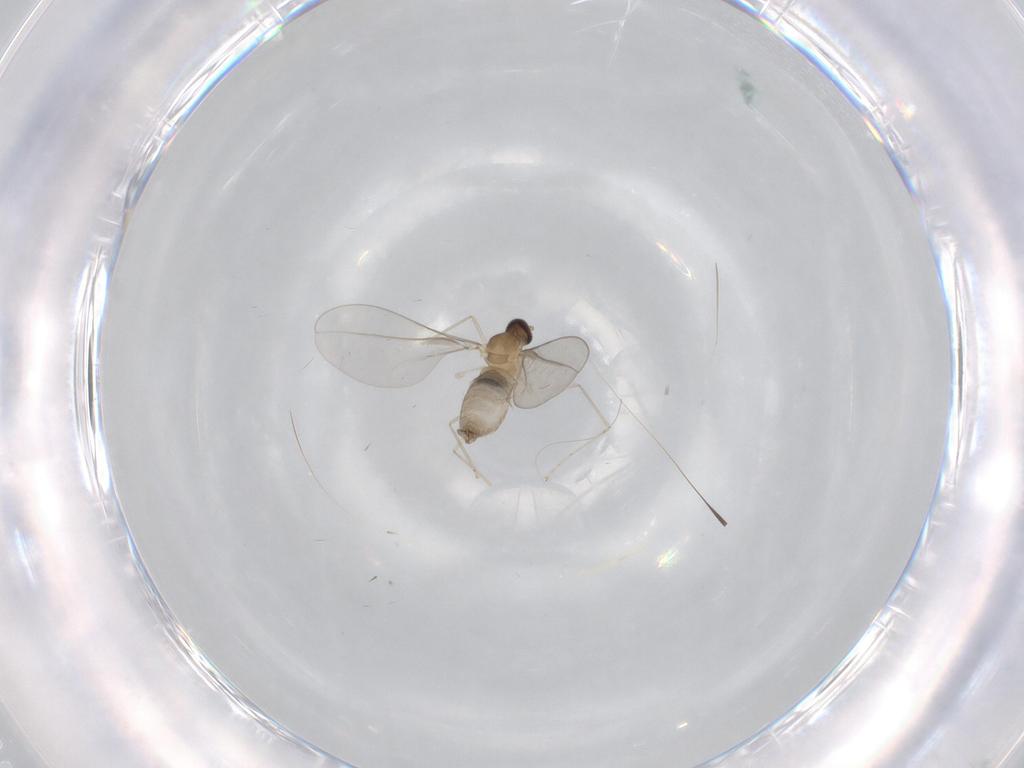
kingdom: Animalia
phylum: Arthropoda
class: Insecta
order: Diptera
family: Cecidomyiidae
